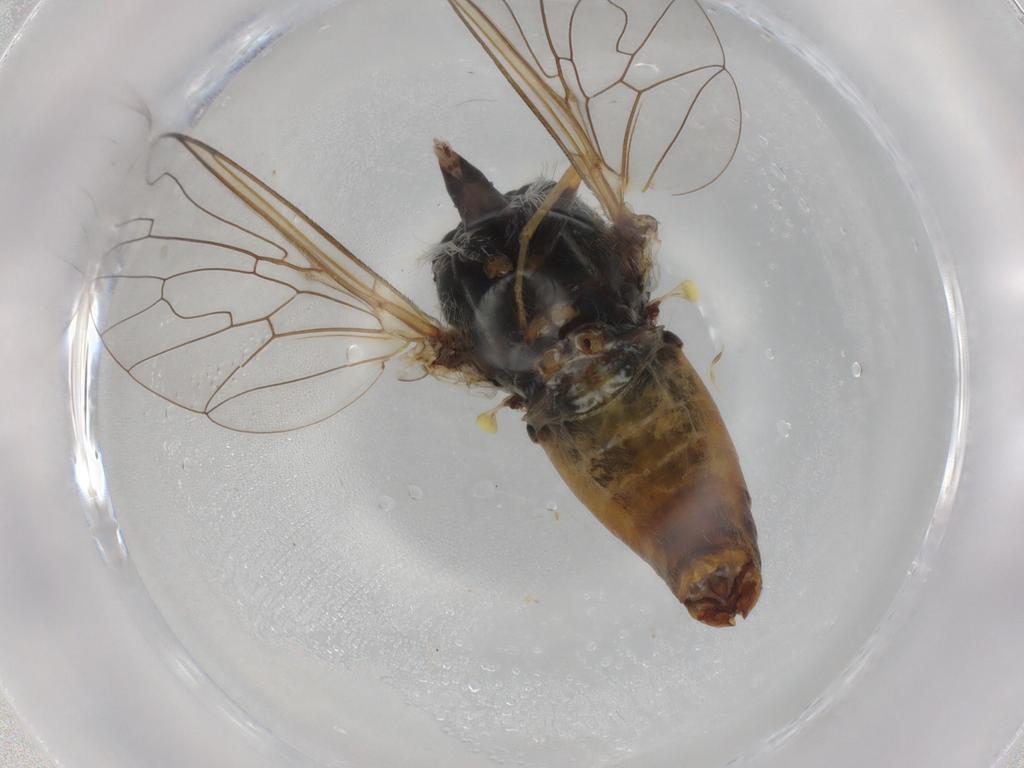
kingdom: Animalia
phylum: Arthropoda
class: Insecta
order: Diptera
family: Bombyliidae
